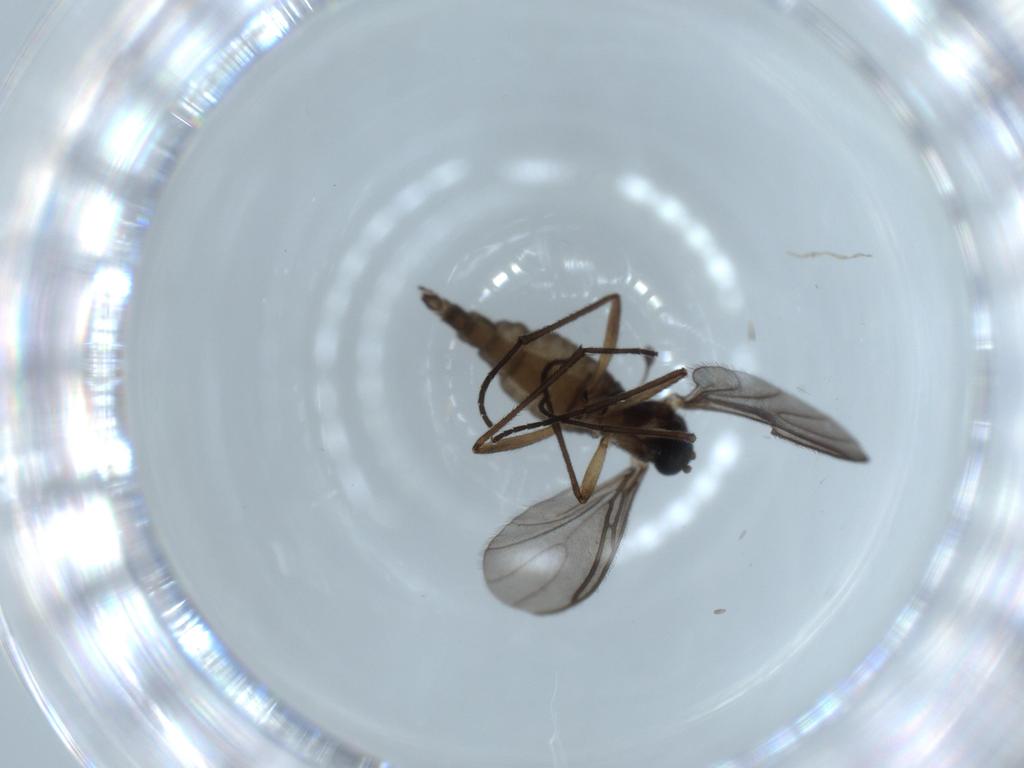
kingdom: Animalia
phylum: Arthropoda
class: Insecta
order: Diptera
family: Sciaridae
